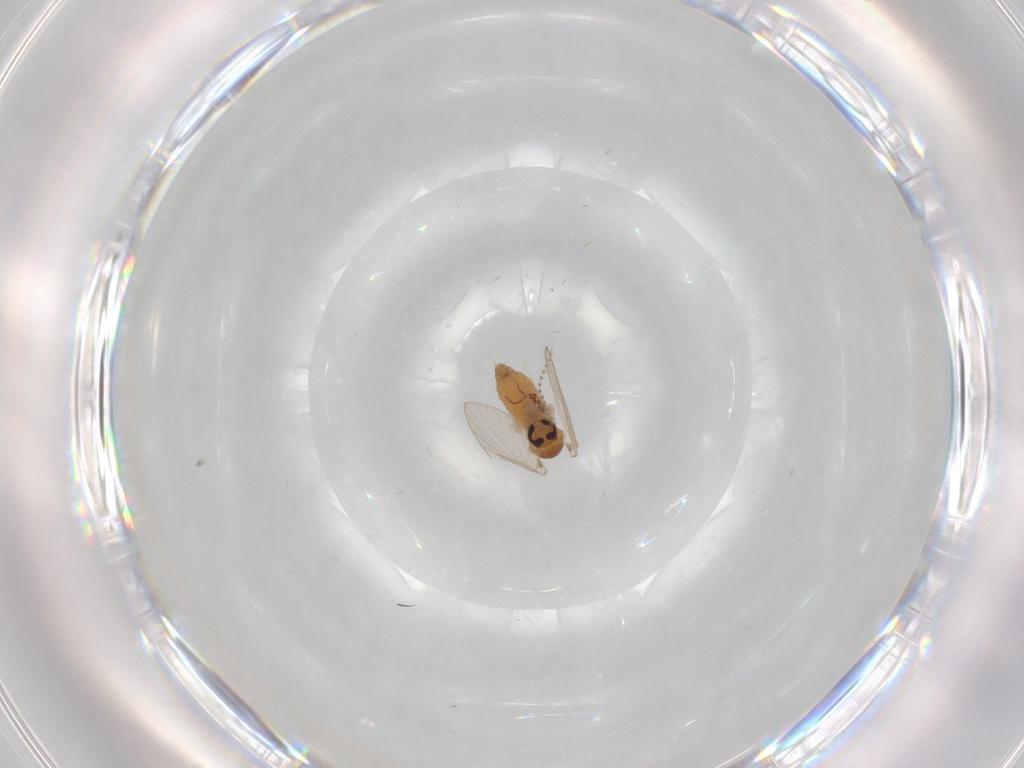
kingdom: Animalia
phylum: Arthropoda
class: Insecta
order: Diptera
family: Psychodidae
